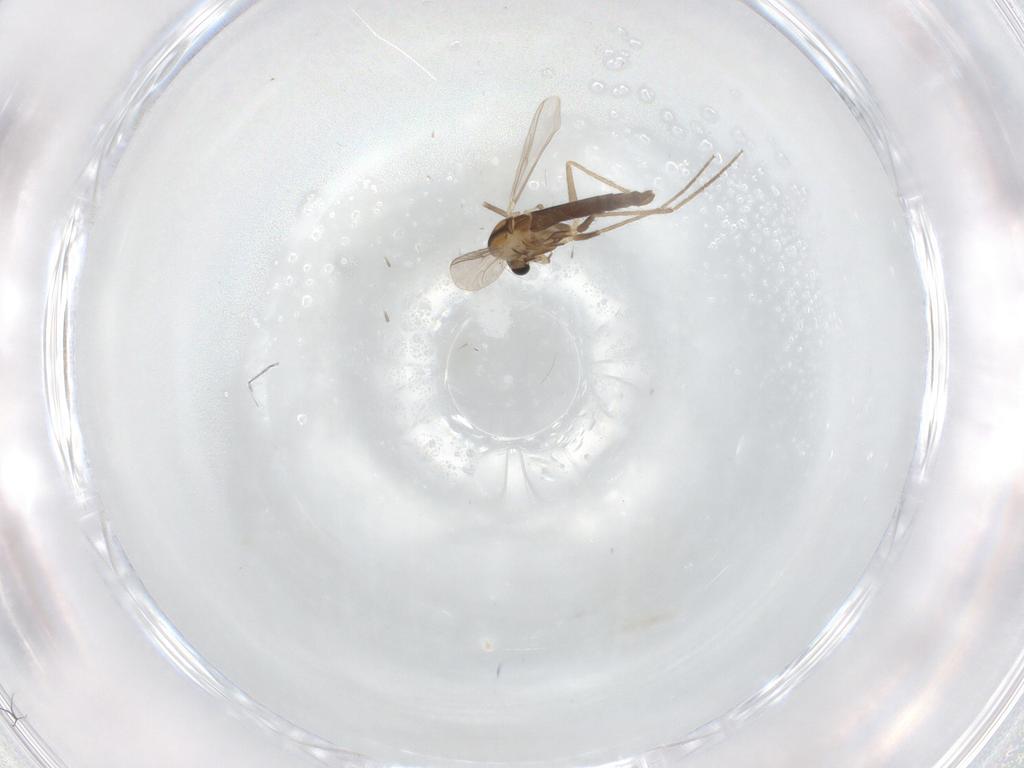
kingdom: Animalia
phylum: Arthropoda
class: Insecta
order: Diptera
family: Chironomidae
